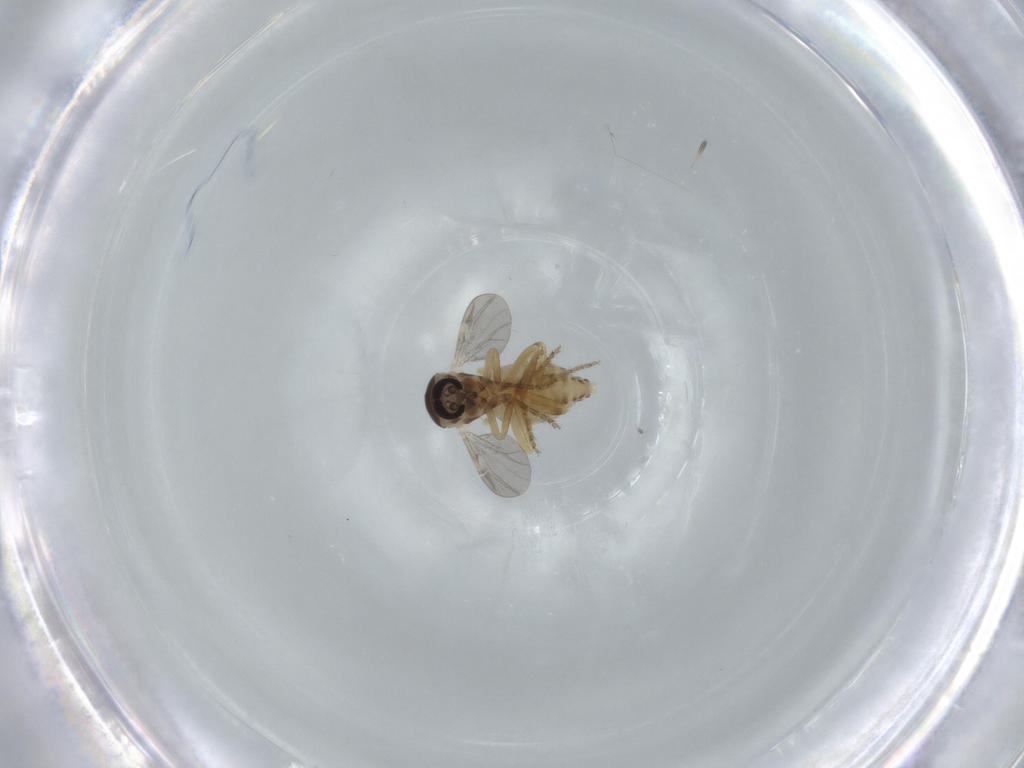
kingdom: Animalia
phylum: Arthropoda
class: Insecta
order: Diptera
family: Ceratopogonidae
